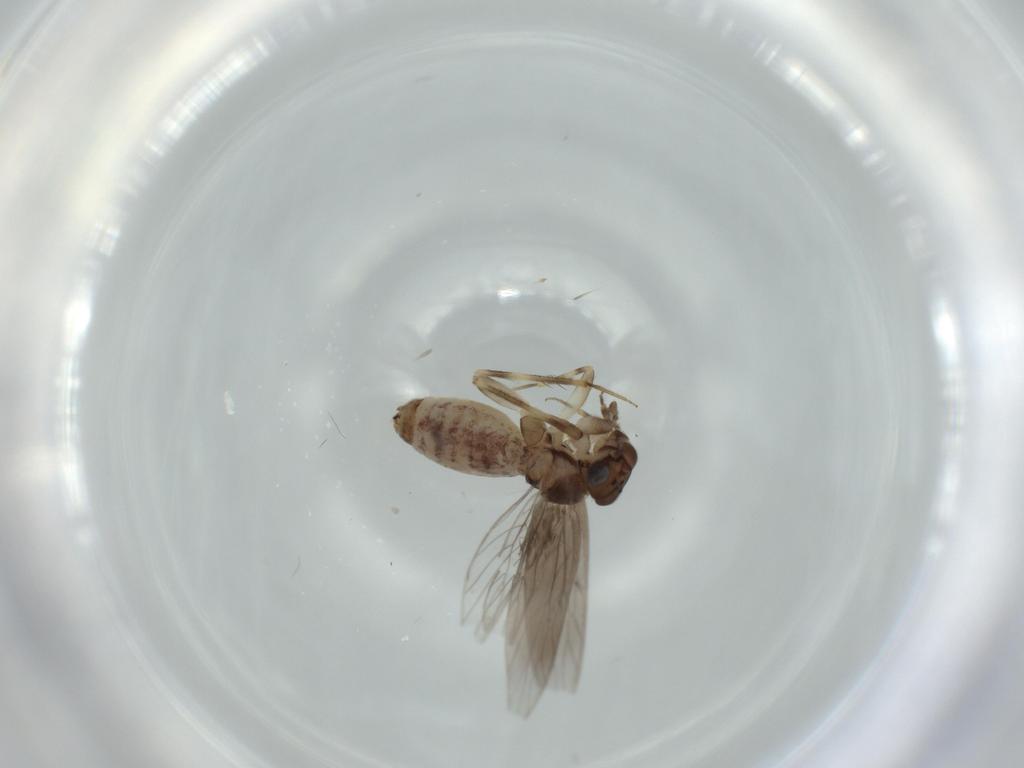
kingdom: Animalia
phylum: Arthropoda
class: Insecta
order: Psocodea
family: Lepidopsocidae
